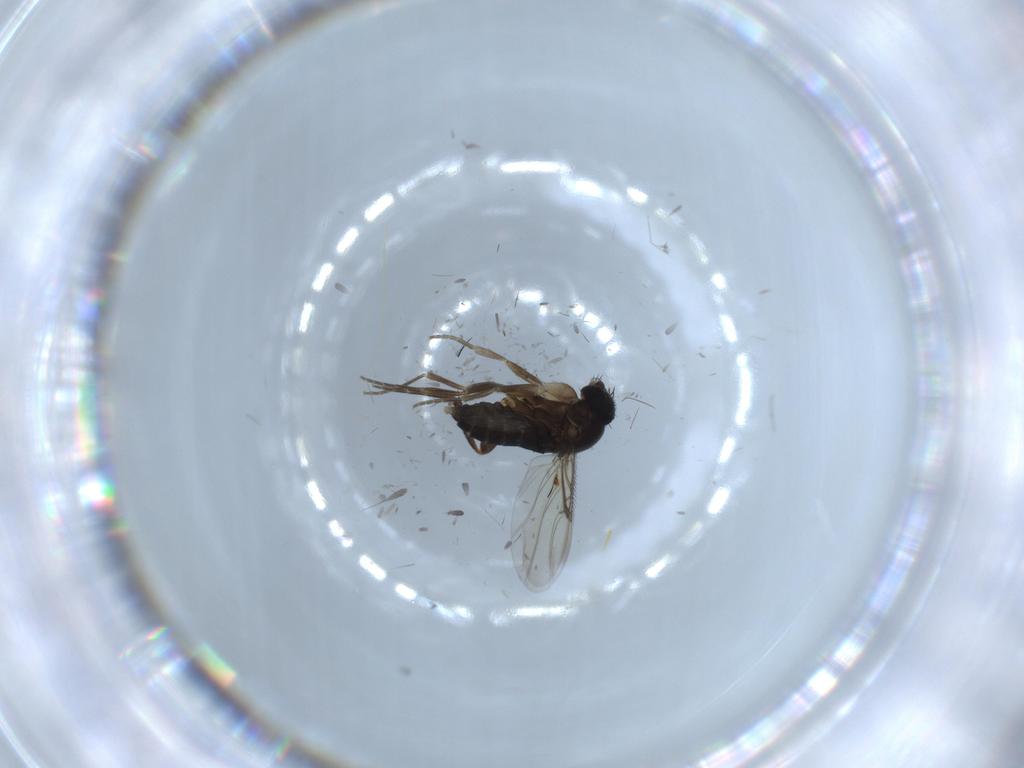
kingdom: Animalia
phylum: Arthropoda
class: Insecta
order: Diptera
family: Phoridae
